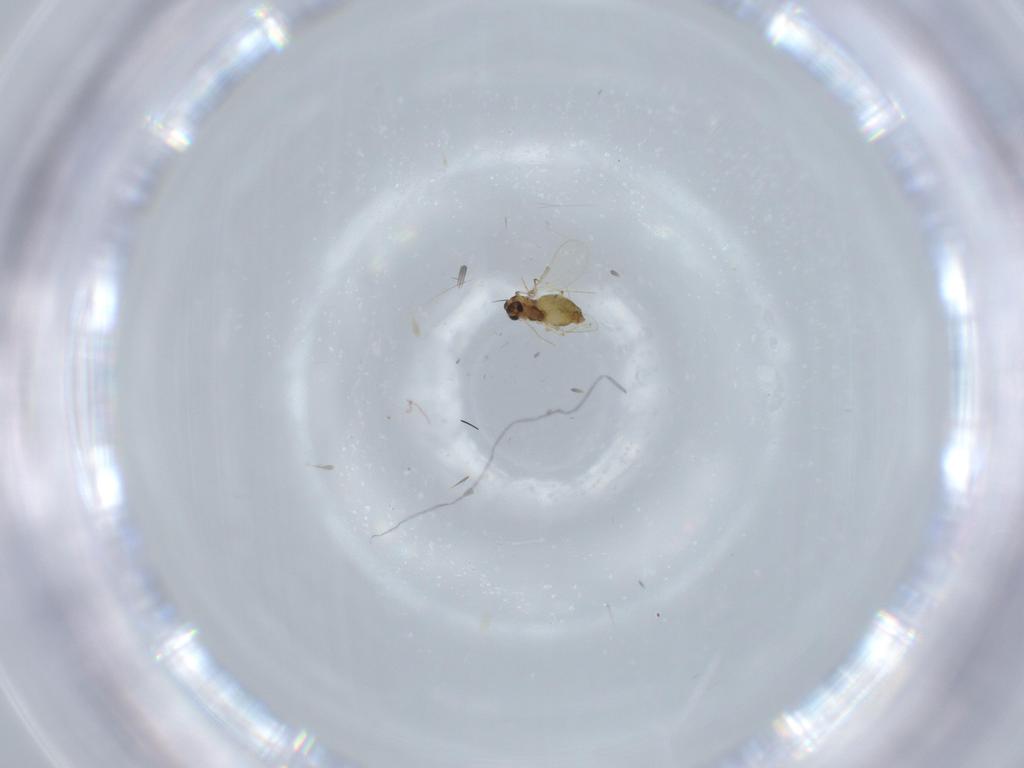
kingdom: Animalia
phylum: Arthropoda
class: Insecta
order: Diptera
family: Chironomidae
